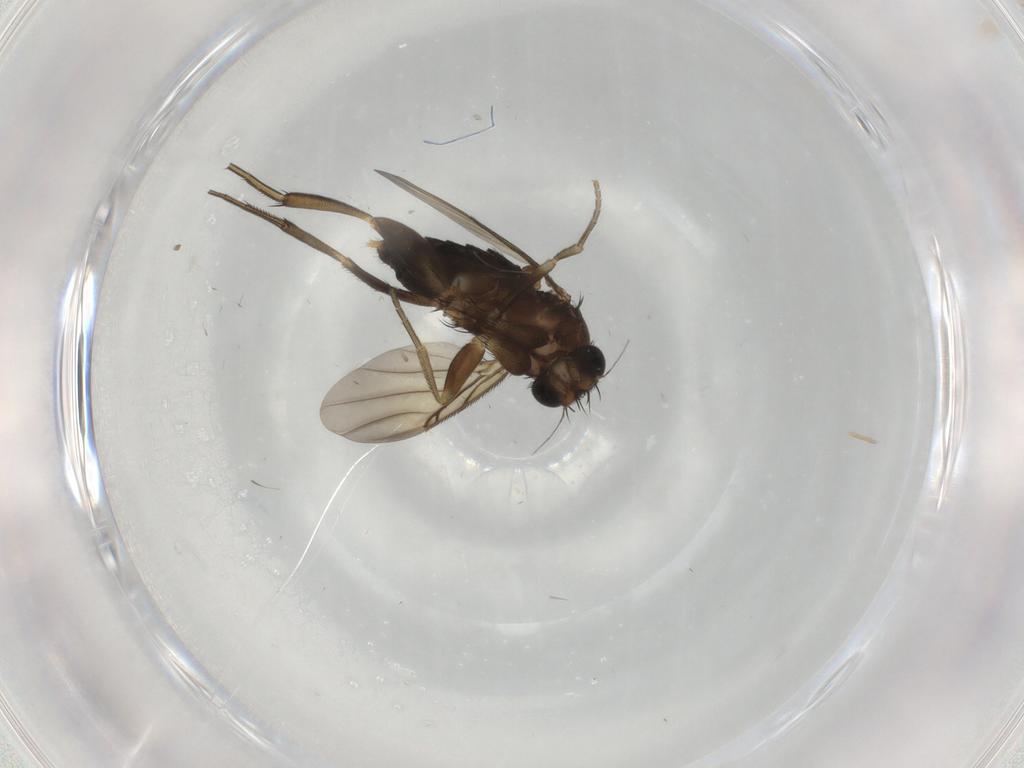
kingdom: Animalia
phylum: Arthropoda
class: Insecta
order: Diptera
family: Phoridae
